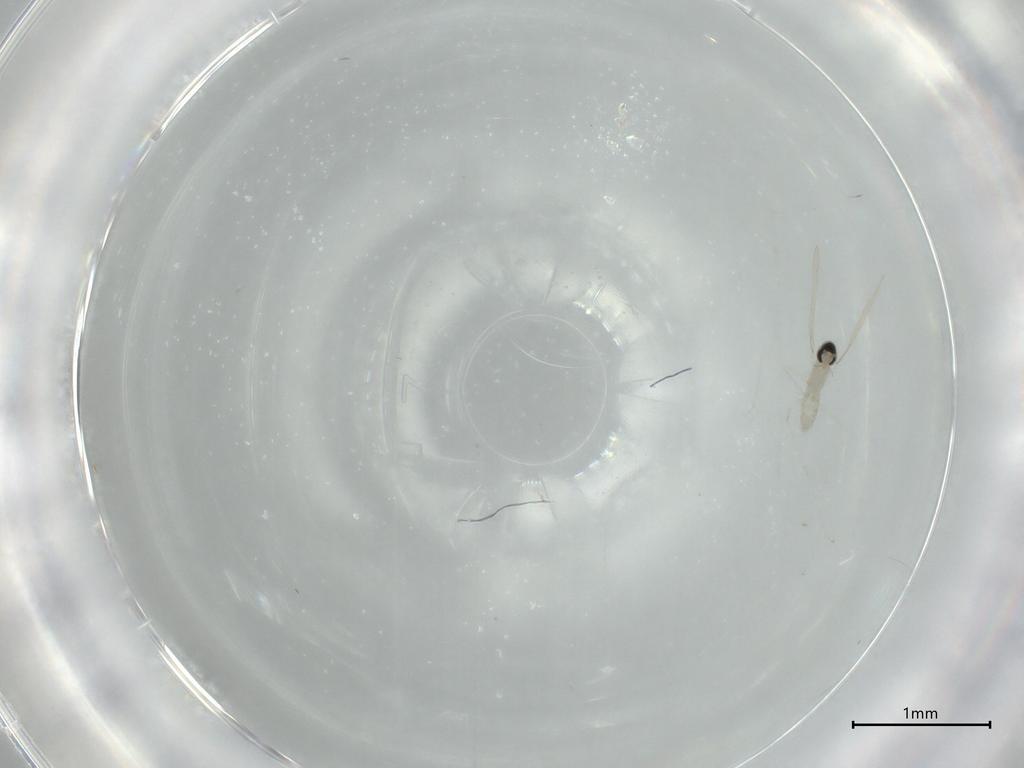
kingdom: Animalia
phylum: Arthropoda
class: Insecta
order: Diptera
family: Cecidomyiidae
